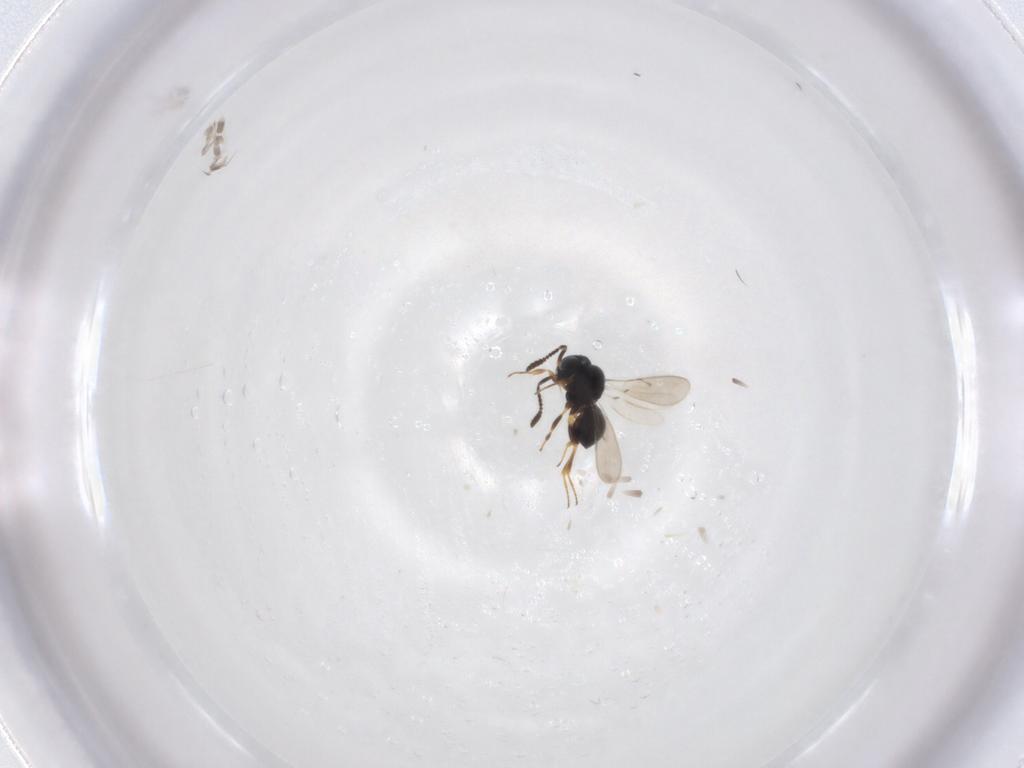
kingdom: Animalia
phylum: Arthropoda
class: Insecta
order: Hymenoptera
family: Scelionidae
